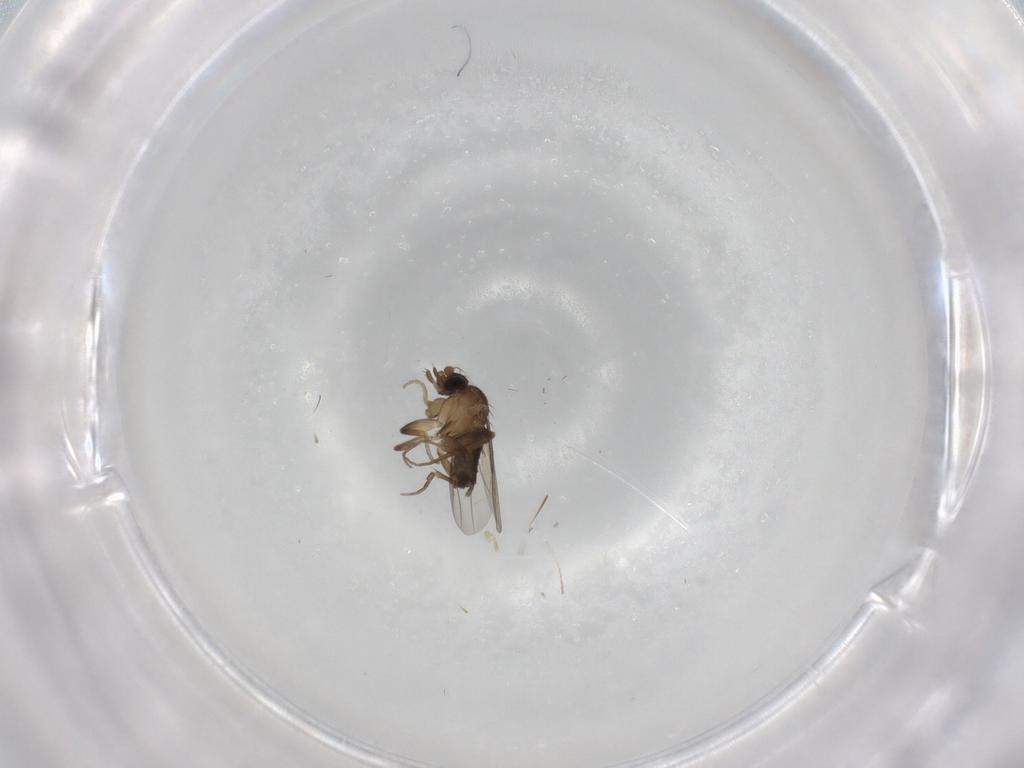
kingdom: Animalia
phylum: Arthropoda
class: Insecta
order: Diptera
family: Phoridae
